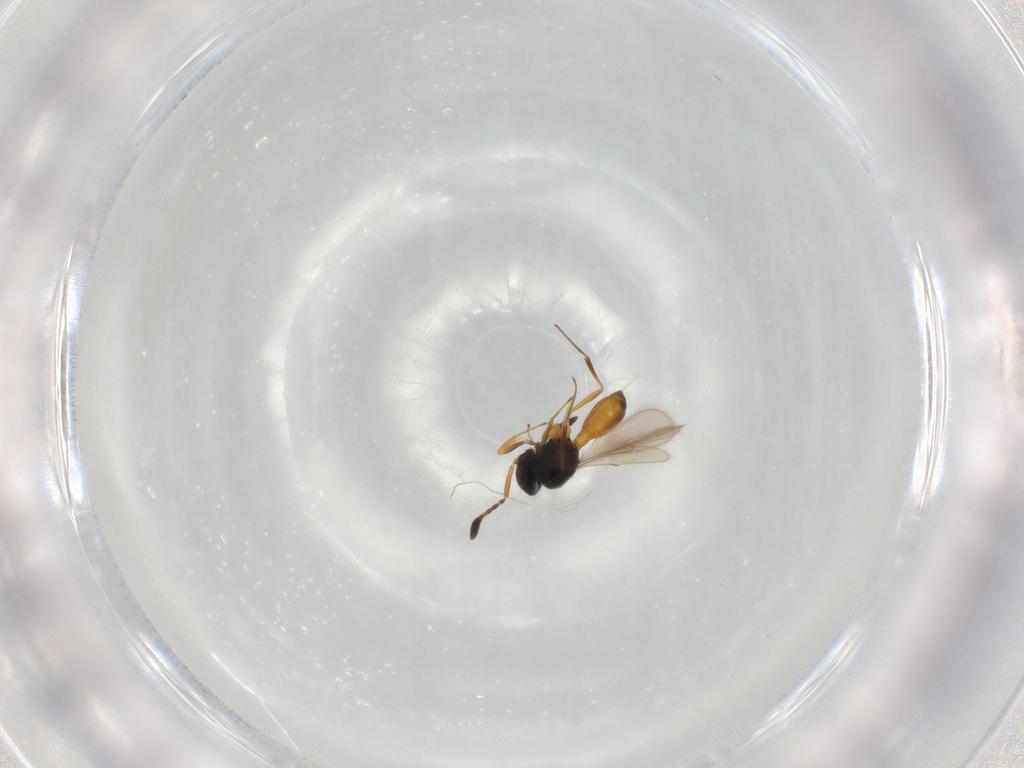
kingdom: Animalia
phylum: Arthropoda
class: Insecta
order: Hymenoptera
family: Scelionidae
